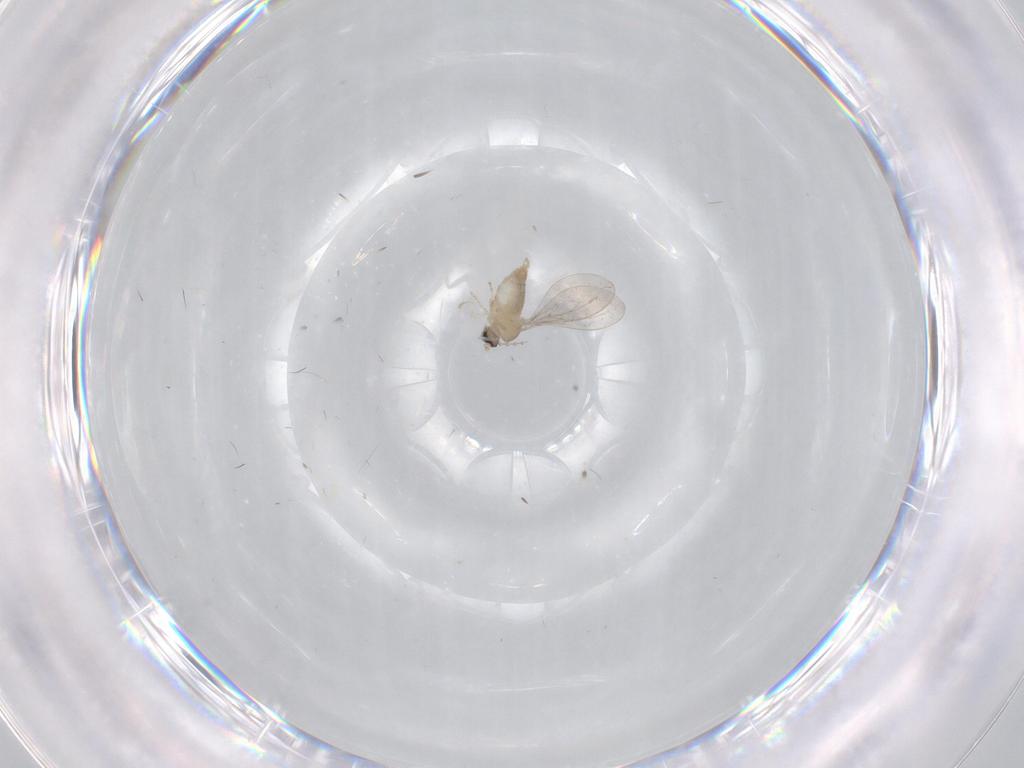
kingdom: Animalia
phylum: Arthropoda
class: Insecta
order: Diptera
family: Cecidomyiidae
